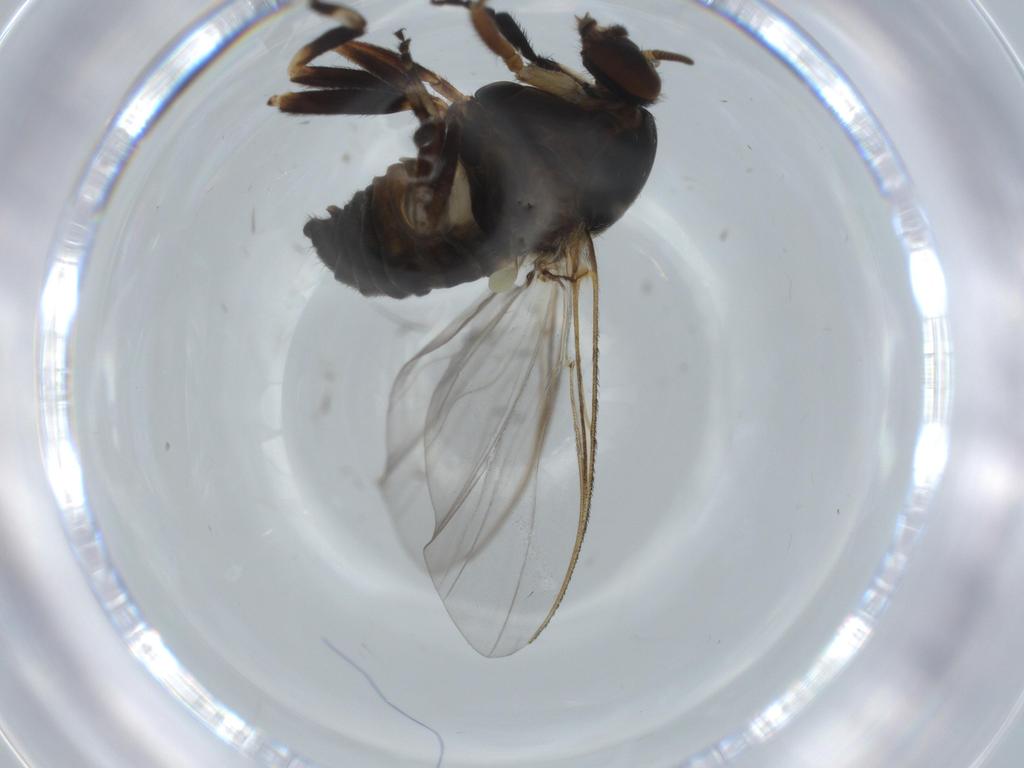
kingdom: Animalia
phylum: Arthropoda
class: Insecta
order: Diptera
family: Milichiidae
